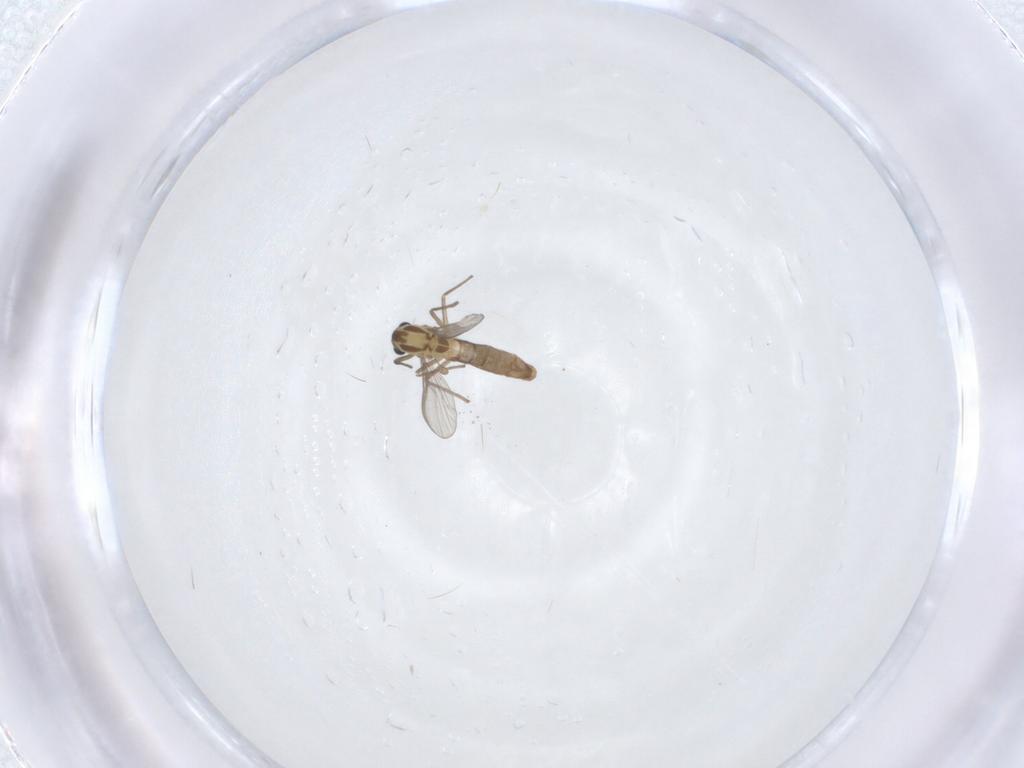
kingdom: Animalia
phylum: Arthropoda
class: Insecta
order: Diptera
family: Chironomidae
